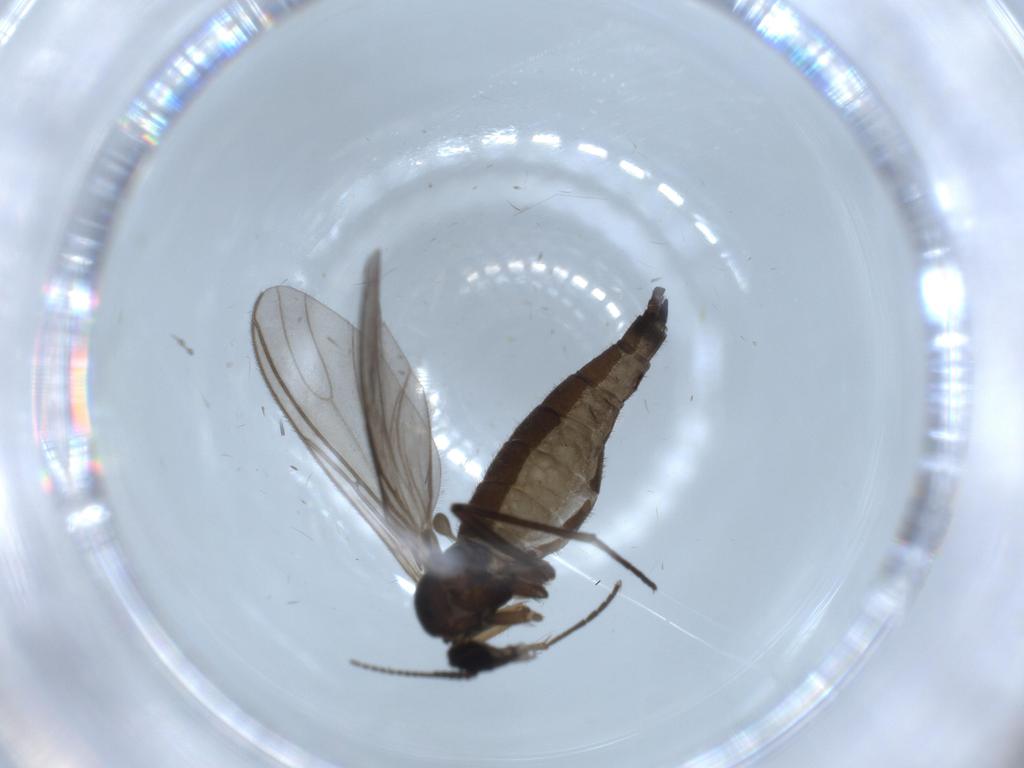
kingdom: Animalia
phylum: Arthropoda
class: Insecta
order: Diptera
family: Sciaridae
